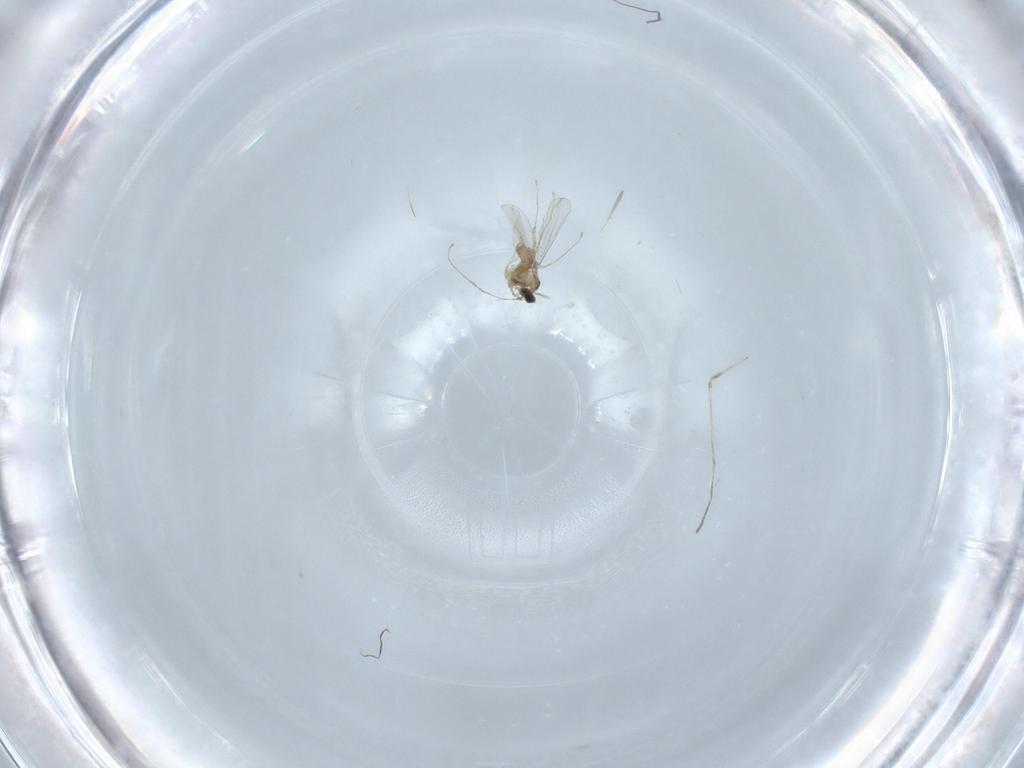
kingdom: Animalia
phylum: Arthropoda
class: Insecta
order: Diptera
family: Cecidomyiidae
